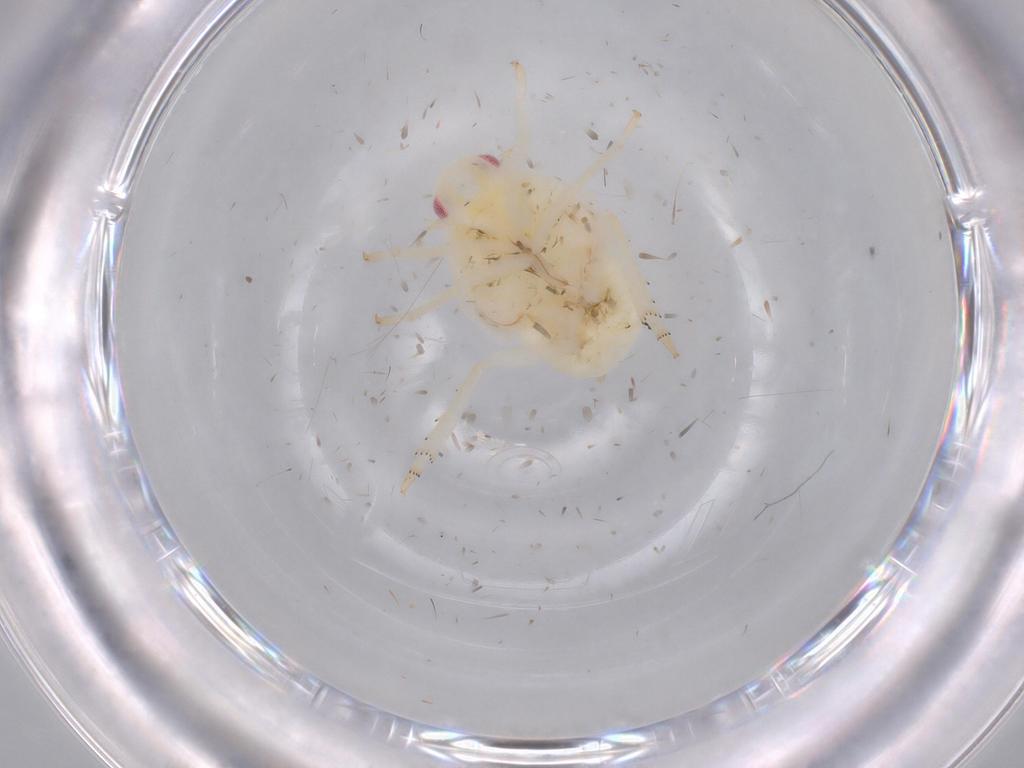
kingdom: Animalia
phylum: Arthropoda
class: Insecta
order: Hemiptera
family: Flatidae
